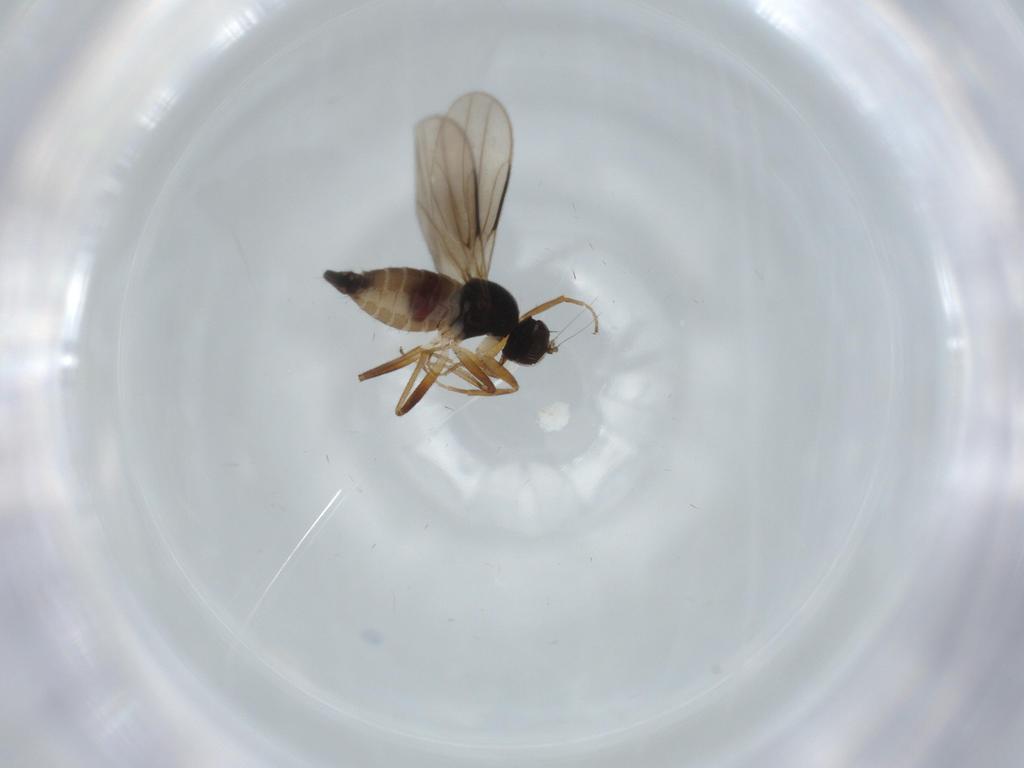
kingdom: Animalia
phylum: Arthropoda
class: Insecta
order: Diptera
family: Hybotidae
